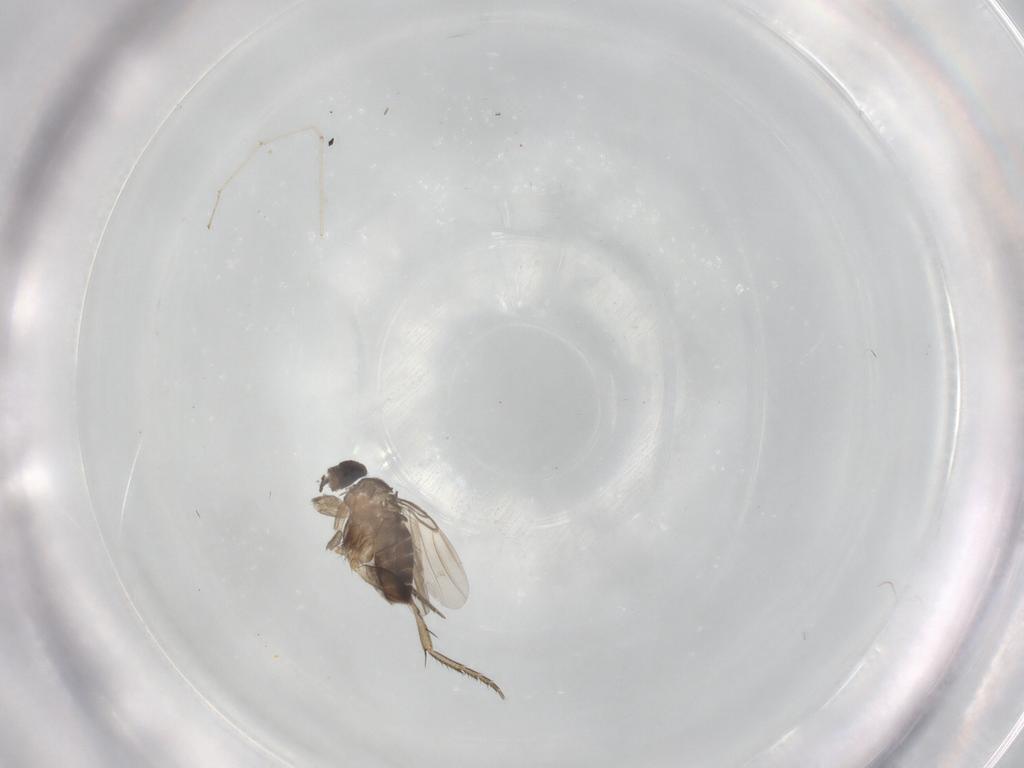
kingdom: Animalia
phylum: Arthropoda
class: Insecta
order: Diptera
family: Phoridae
